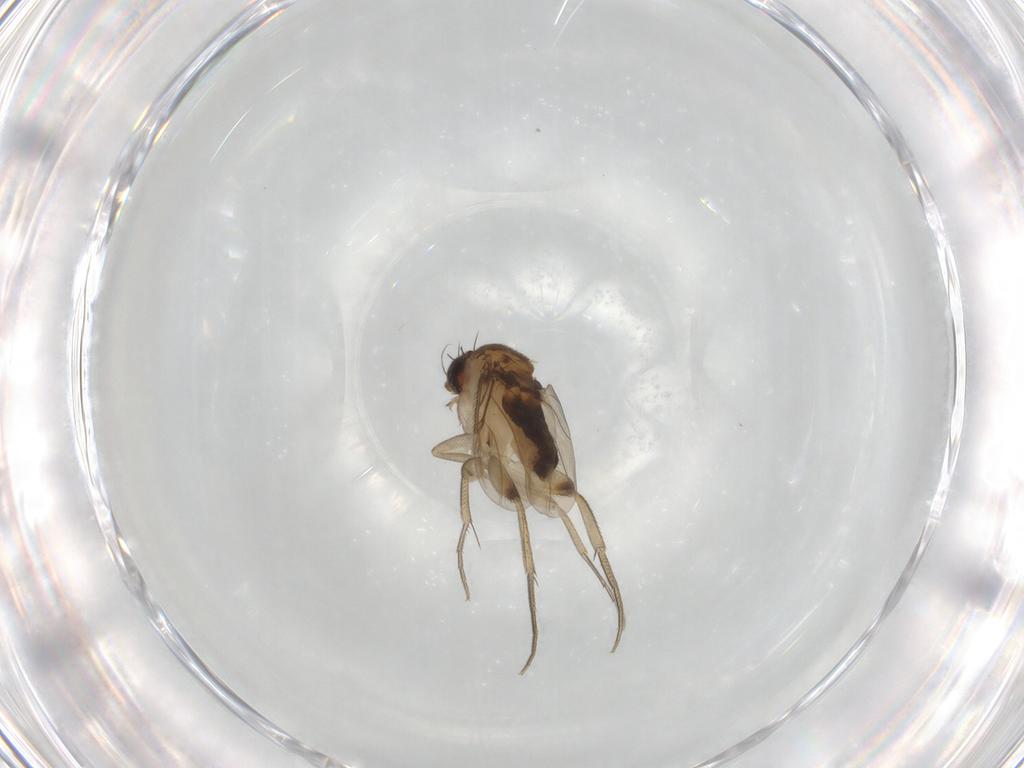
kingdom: Animalia
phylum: Arthropoda
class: Insecta
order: Diptera
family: Phoridae
